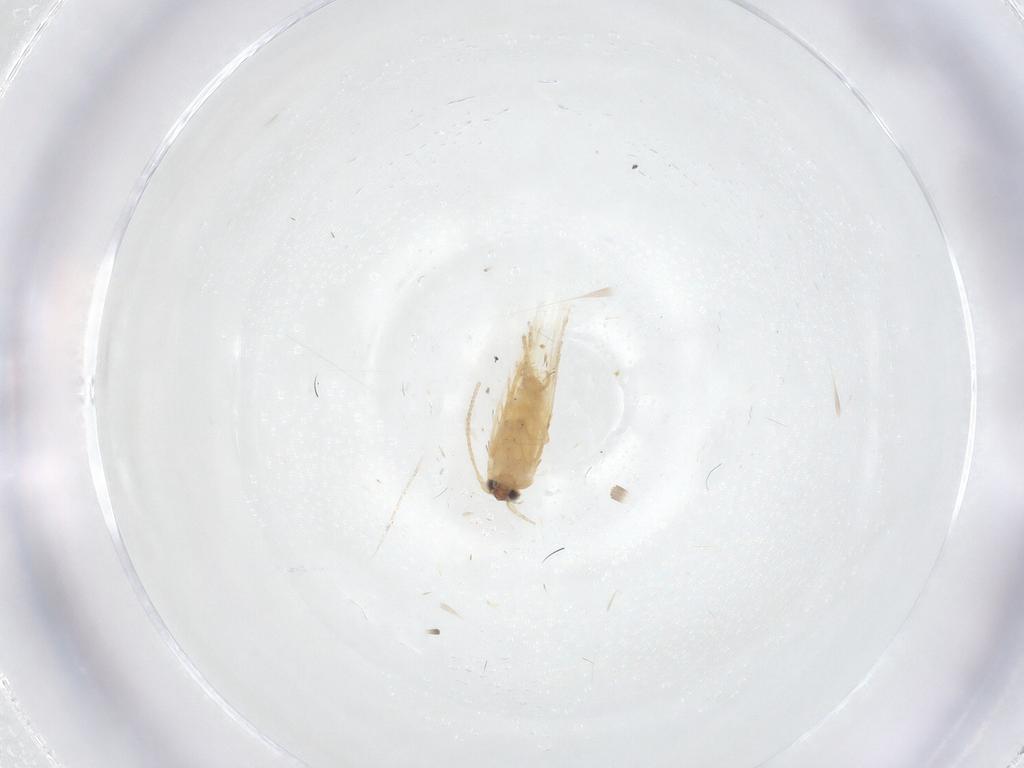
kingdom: Animalia
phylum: Arthropoda
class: Insecta
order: Lepidoptera
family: Nepticulidae
